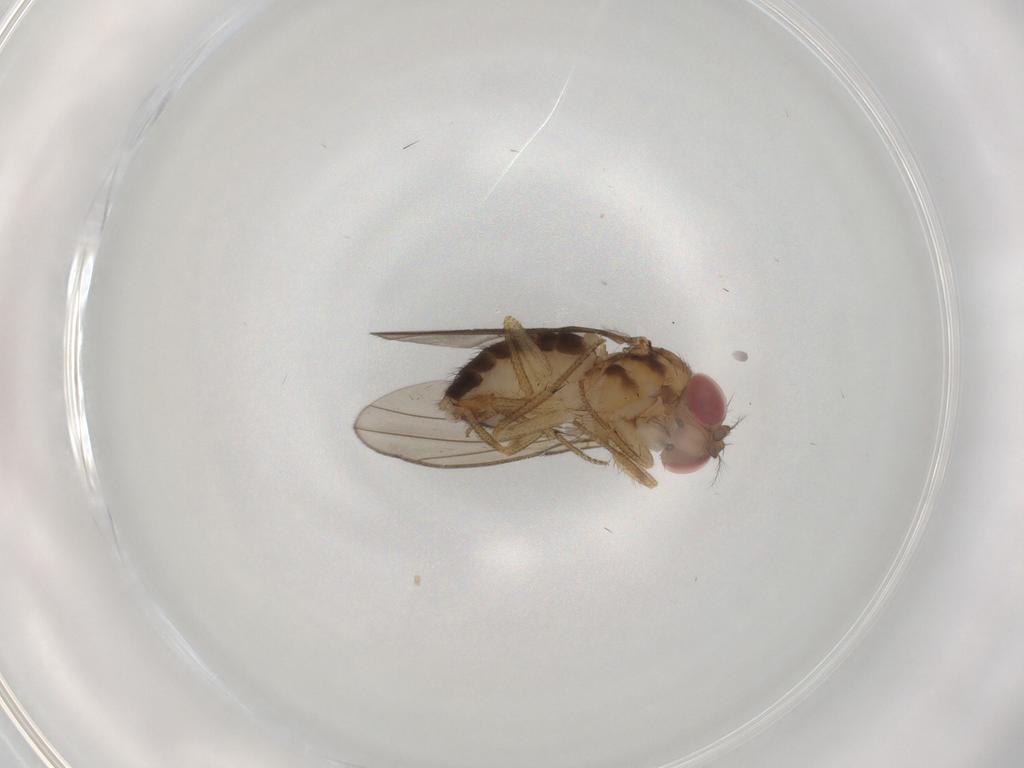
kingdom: Animalia
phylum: Arthropoda
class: Insecta
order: Diptera
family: Drosophilidae
